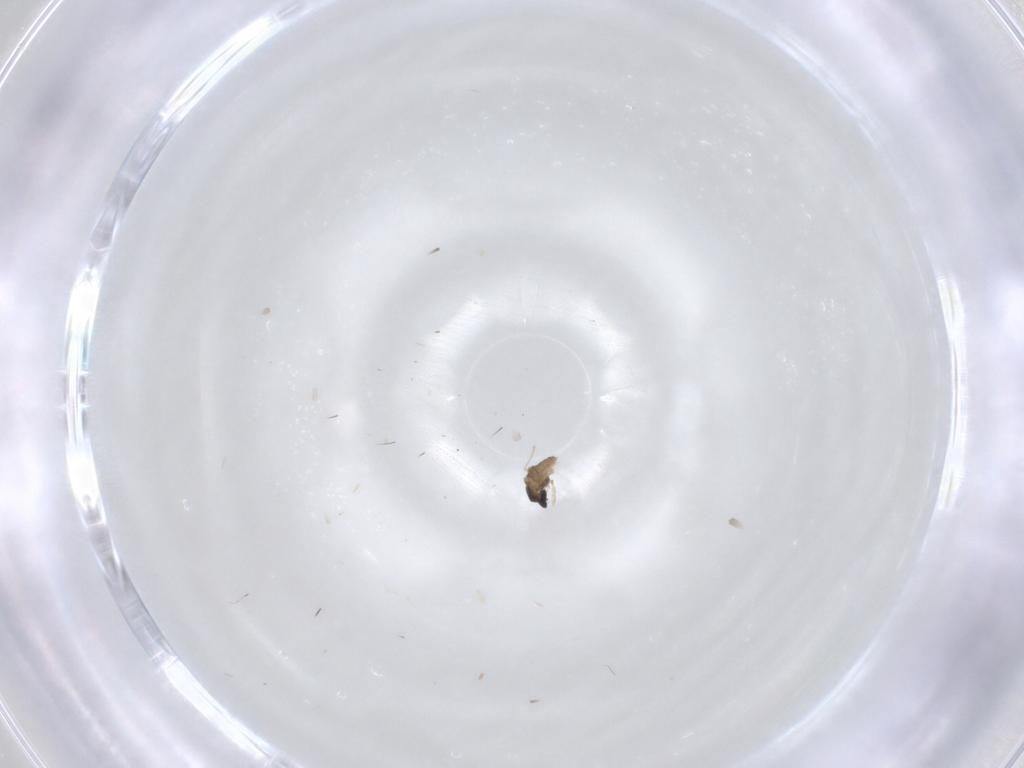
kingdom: Animalia
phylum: Arthropoda
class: Insecta
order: Diptera
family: Cecidomyiidae
